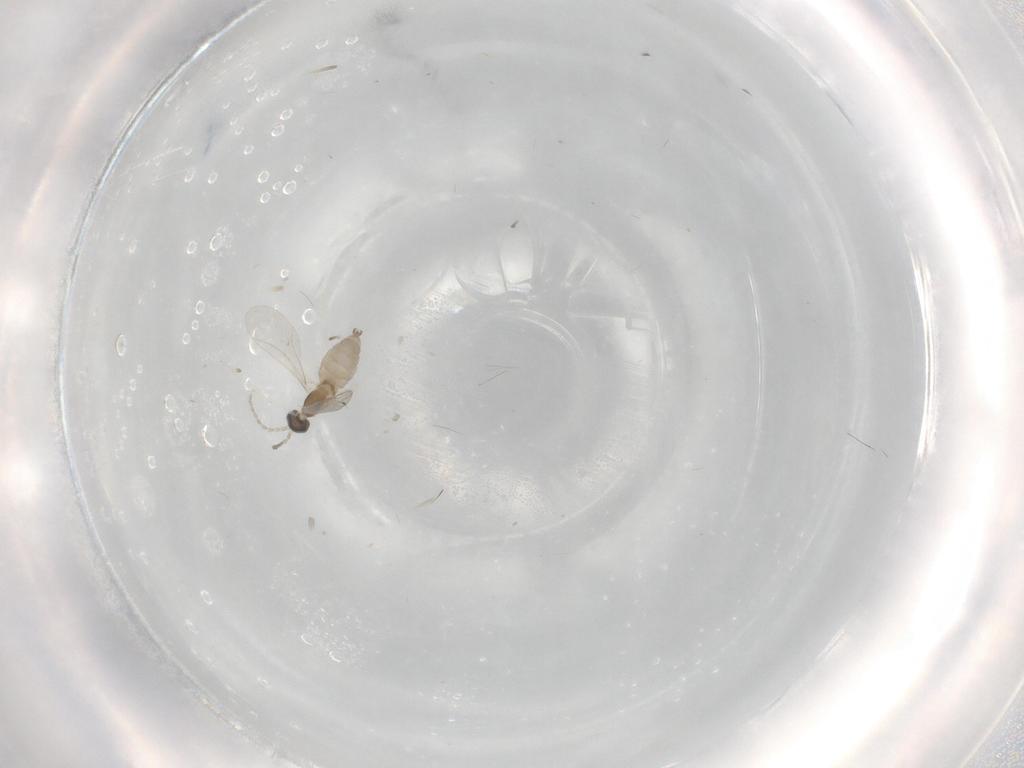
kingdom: Animalia
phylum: Arthropoda
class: Insecta
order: Diptera
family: Cecidomyiidae
